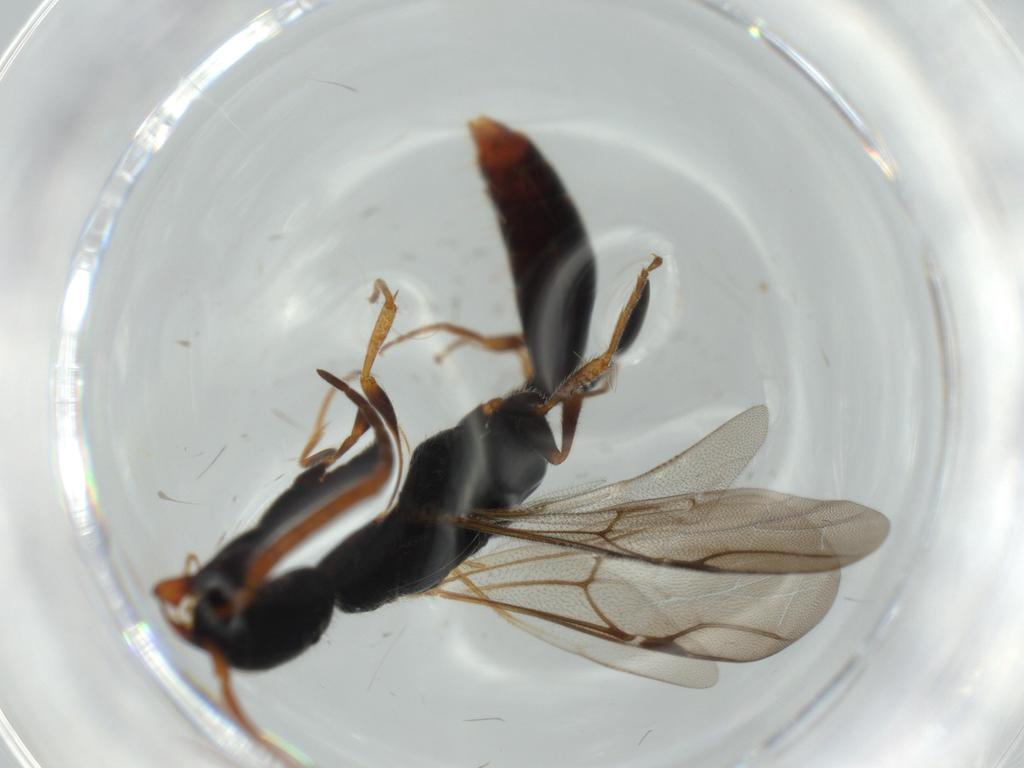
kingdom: Animalia
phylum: Arthropoda
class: Insecta
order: Hymenoptera
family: Bethylidae
